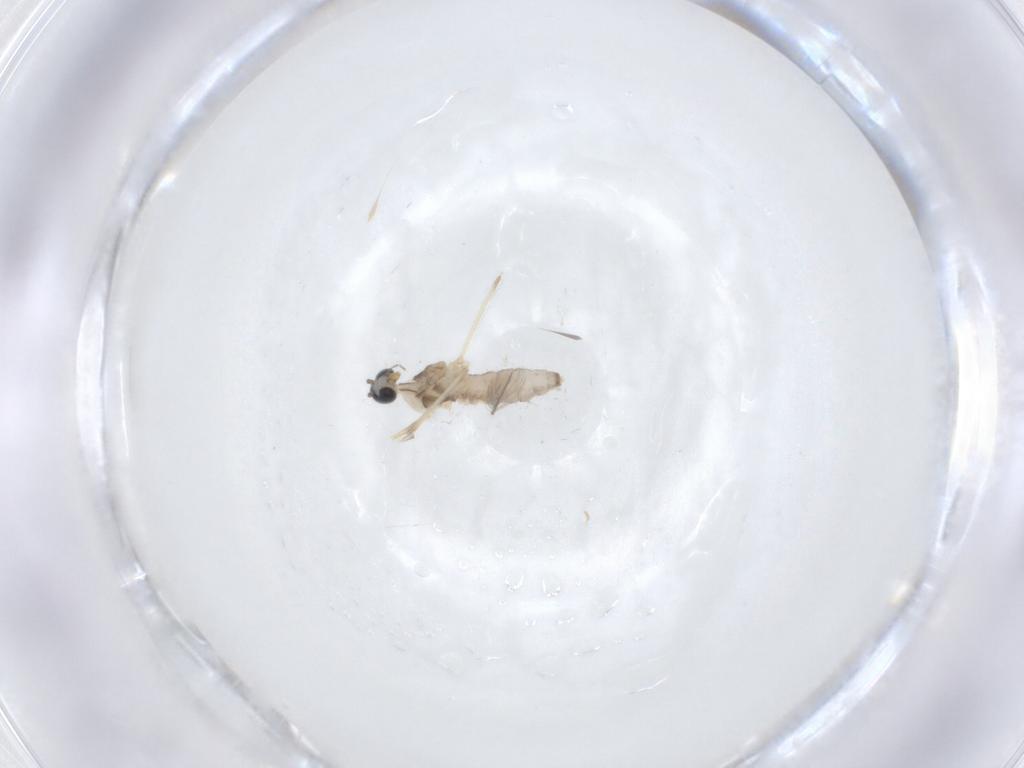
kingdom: Animalia
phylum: Arthropoda
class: Insecta
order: Diptera
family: Cecidomyiidae
